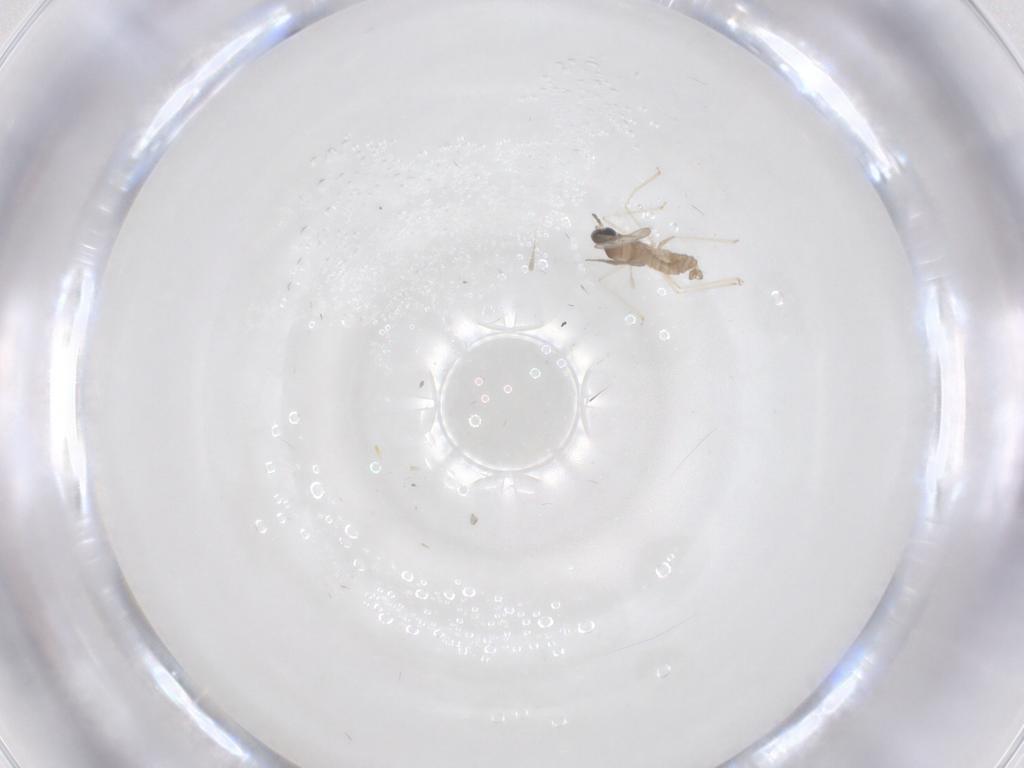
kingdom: Animalia
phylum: Arthropoda
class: Insecta
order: Diptera
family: Cecidomyiidae
